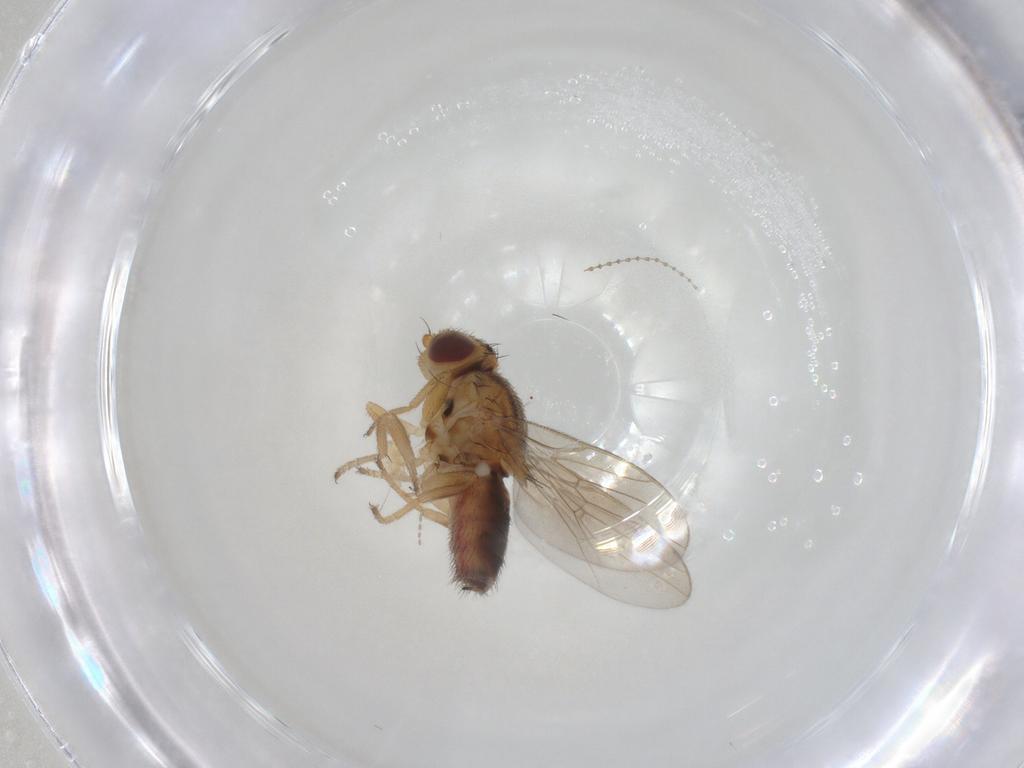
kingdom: Animalia
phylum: Arthropoda
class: Insecta
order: Diptera
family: Chloropidae
